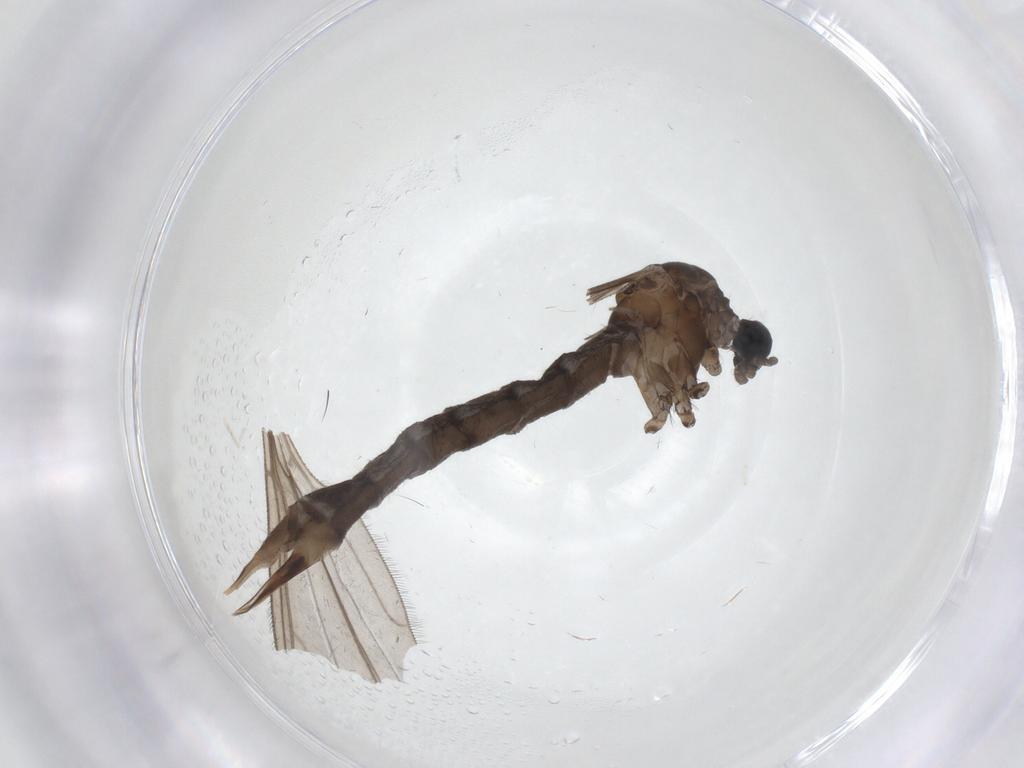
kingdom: Animalia
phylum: Arthropoda
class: Insecta
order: Diptera
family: Limoniidae
